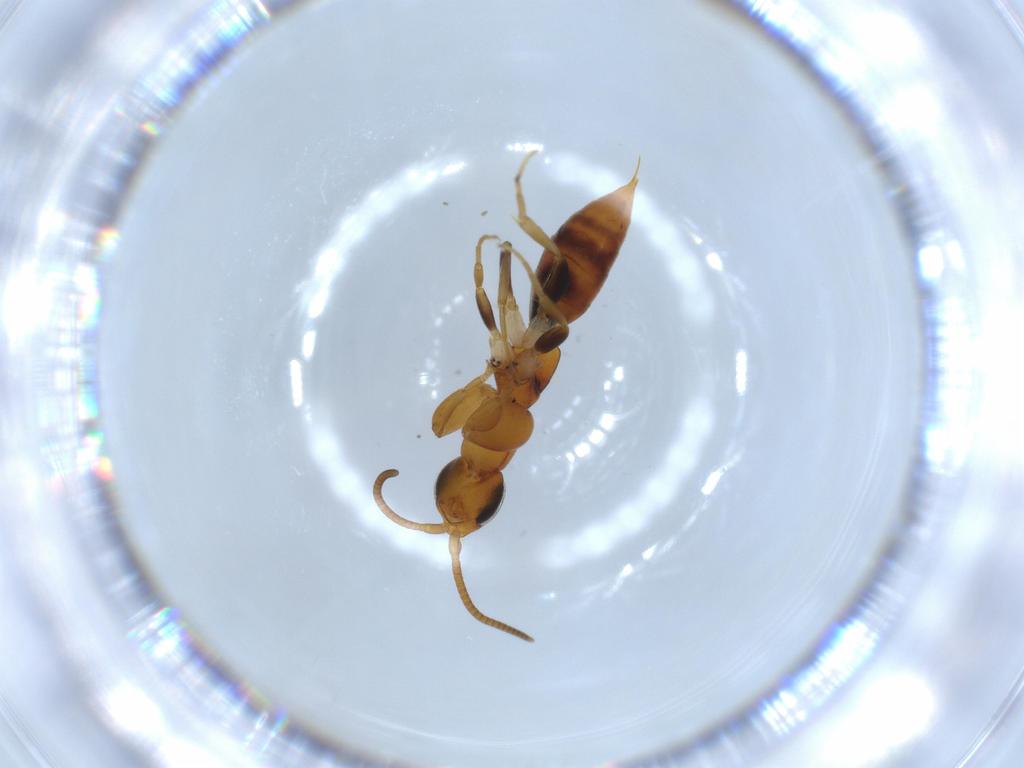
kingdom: Animalia
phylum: Arthropoda
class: Insecta
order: Hymenoptera
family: Sclerogibbidae
